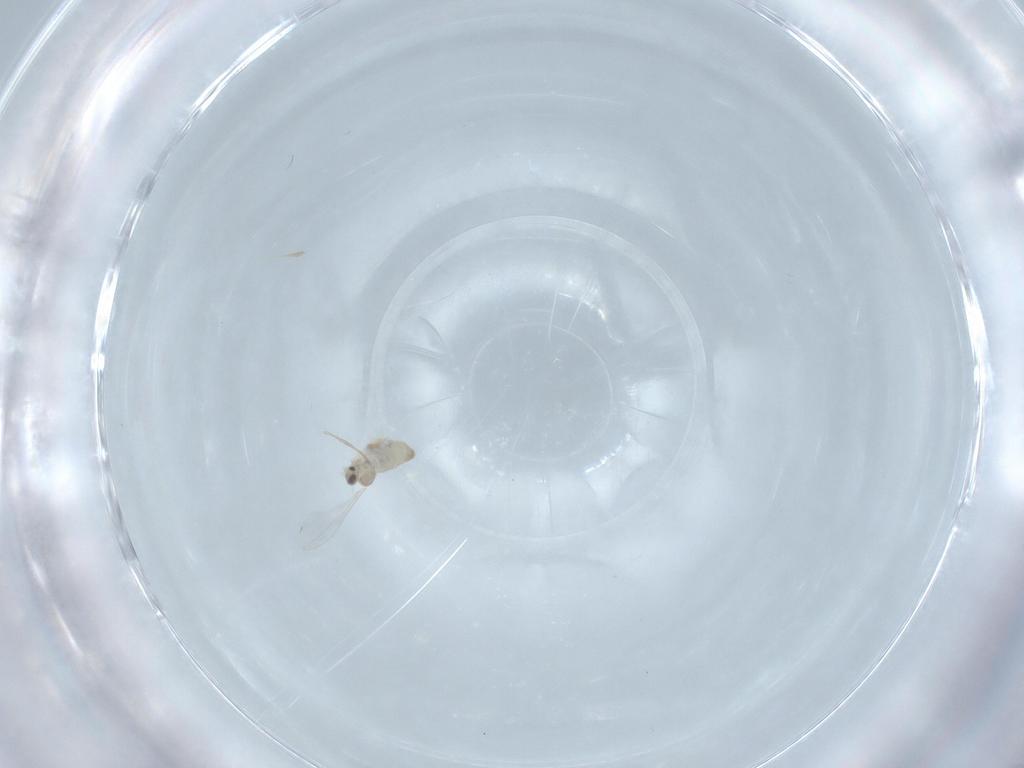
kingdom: Animalia
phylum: Arthropoda
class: Insecta
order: Diptera
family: Cecidomyiidae
